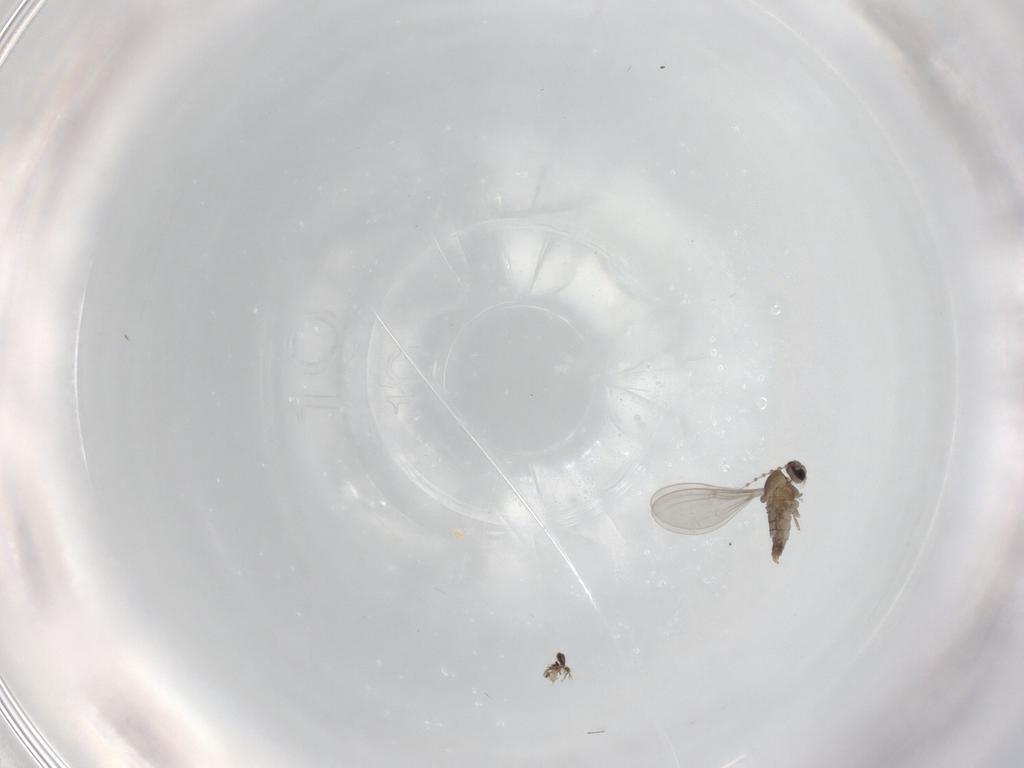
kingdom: Animalia
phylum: Arthropoda
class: Insecta
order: Diptera
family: Cecidomyiidae
